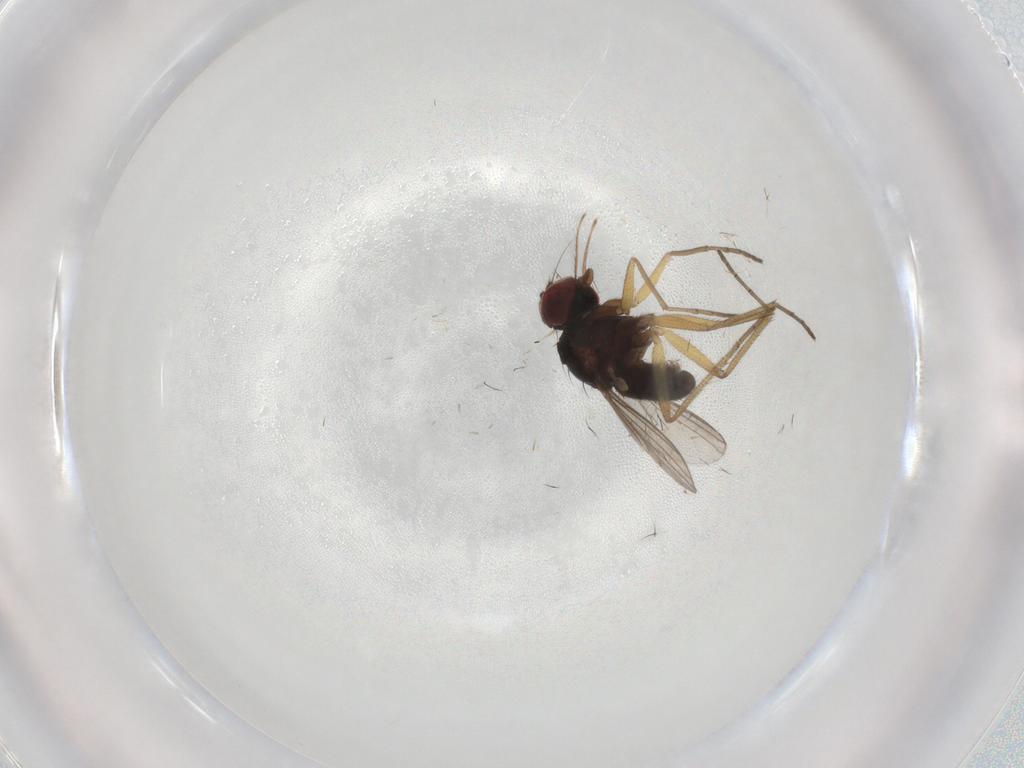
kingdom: Animalia
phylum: Arthropoda
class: Insecta
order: Diptera
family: Dolichopodidae
